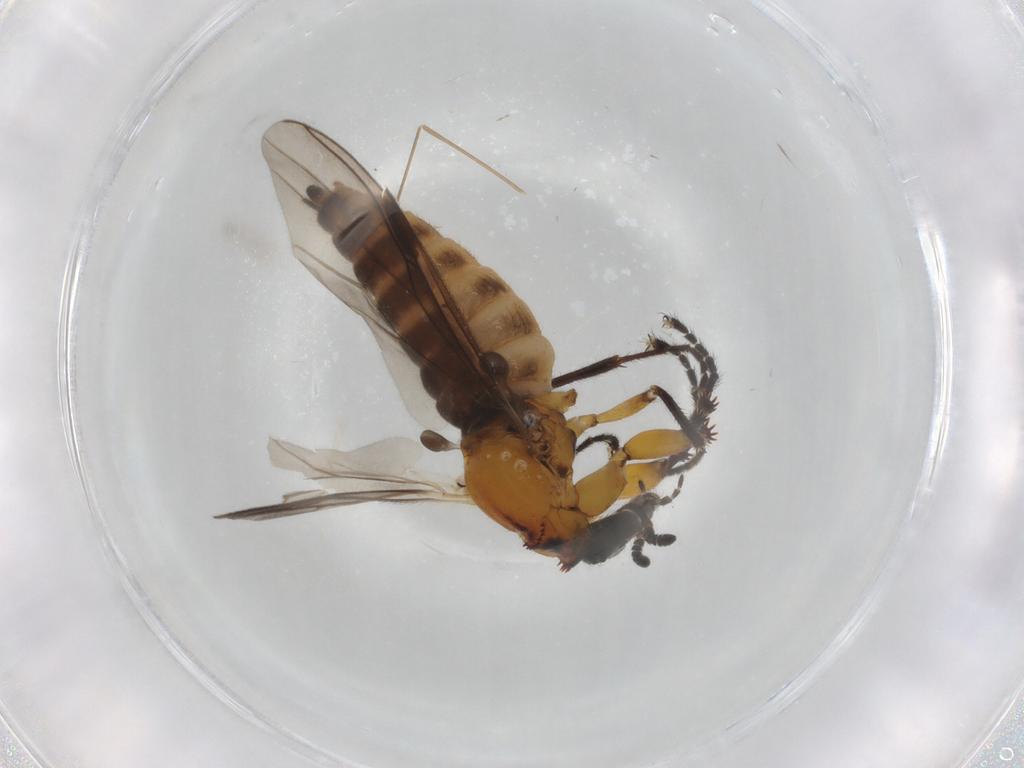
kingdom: Animalia
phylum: Arthropoda
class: Insecta
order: Diptera
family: Bibionidae
